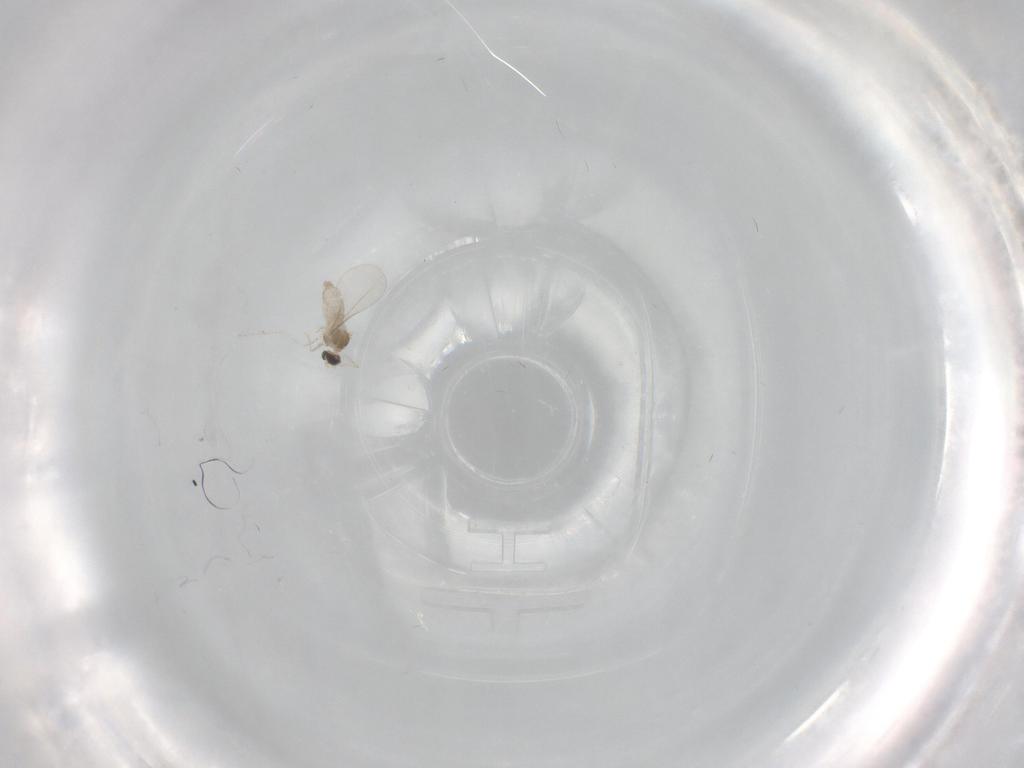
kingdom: Animalia
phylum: Arthropoda
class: Insecta
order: Diptera
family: Cecidomyiidae
